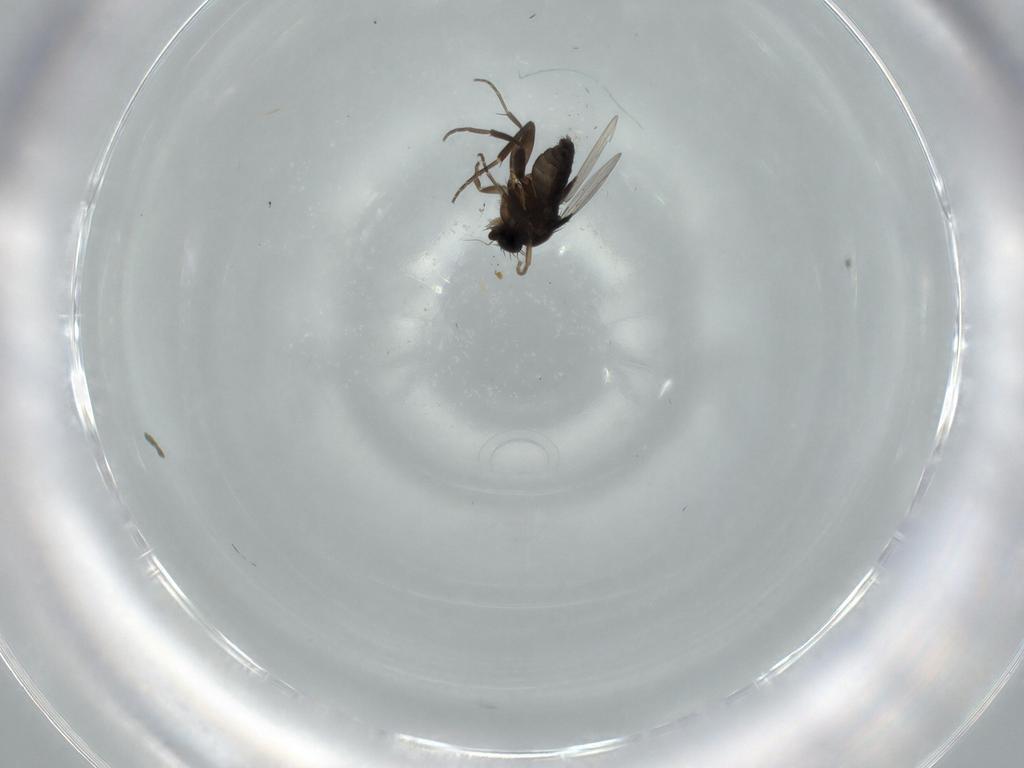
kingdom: Animalia
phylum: Arthropoda
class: Insecta
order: Diptera
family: Phoridae
